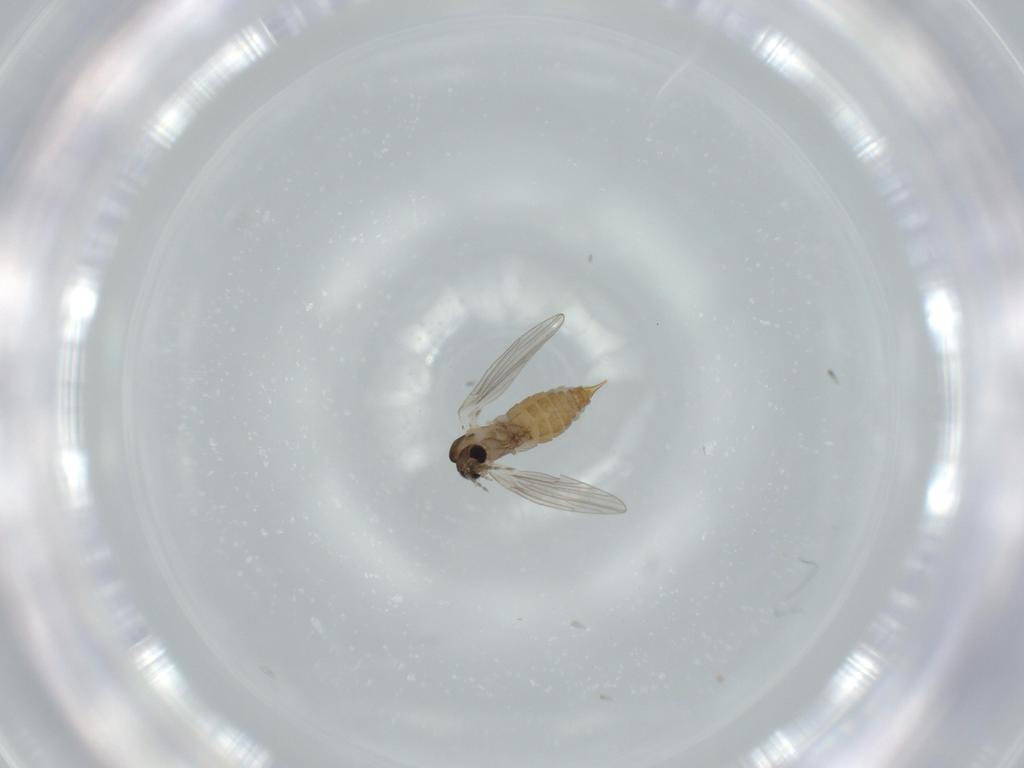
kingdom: Animalia
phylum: Arthropoda
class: Insecta
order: Diptera
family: Psychodidae
